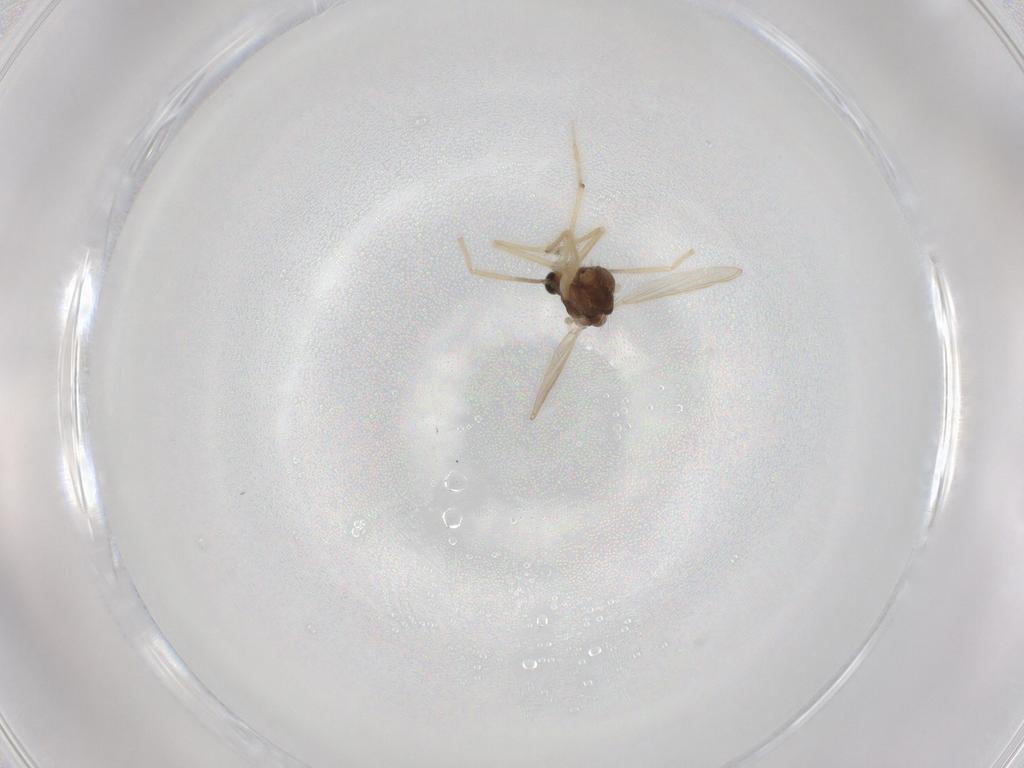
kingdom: Animalia
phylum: Arthropoda
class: Insecta
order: Diptera
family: Chironomidae
